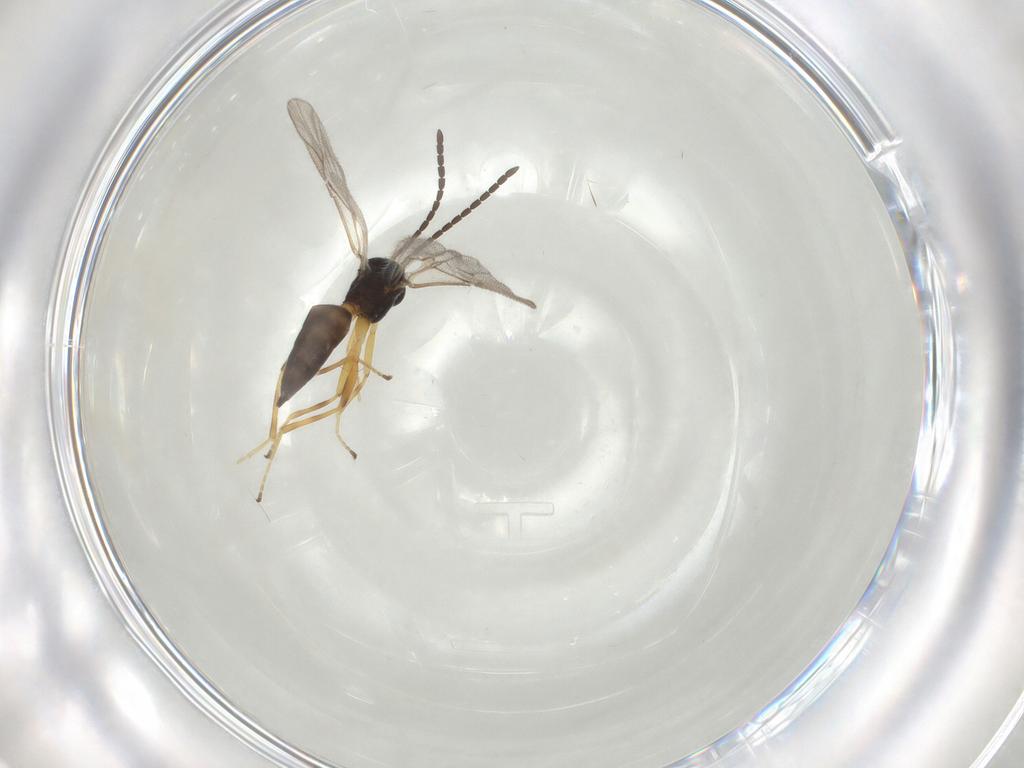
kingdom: Animalia
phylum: Arthropoda
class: Insecta
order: Hymenoptera
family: Braconidae
